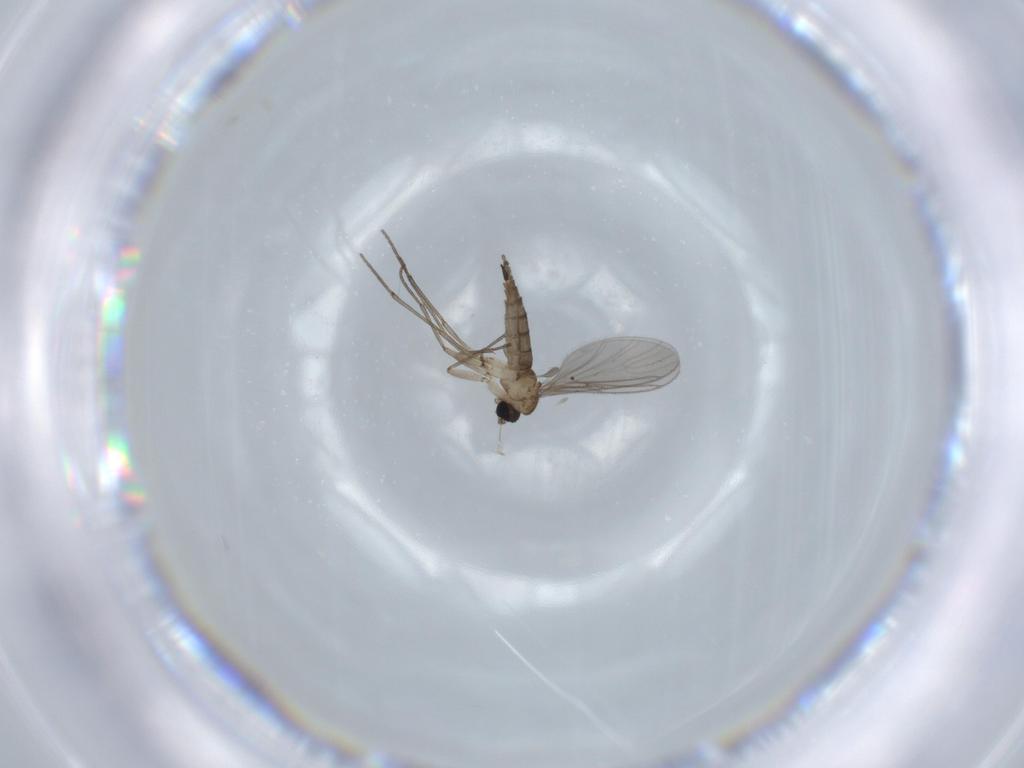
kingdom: Animalia
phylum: Arthropoda
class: Insecta
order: Diptera
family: Sciaridae
